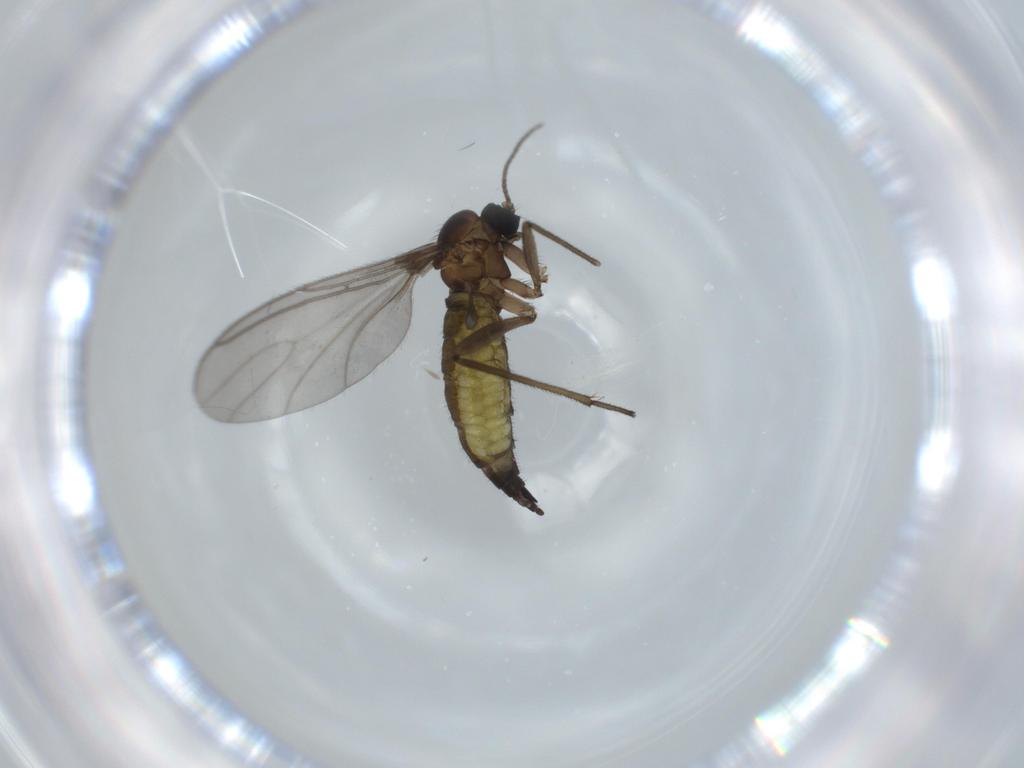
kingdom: Animalia
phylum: Arthropoda
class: Insecta
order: Diptera
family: Sciaridae
